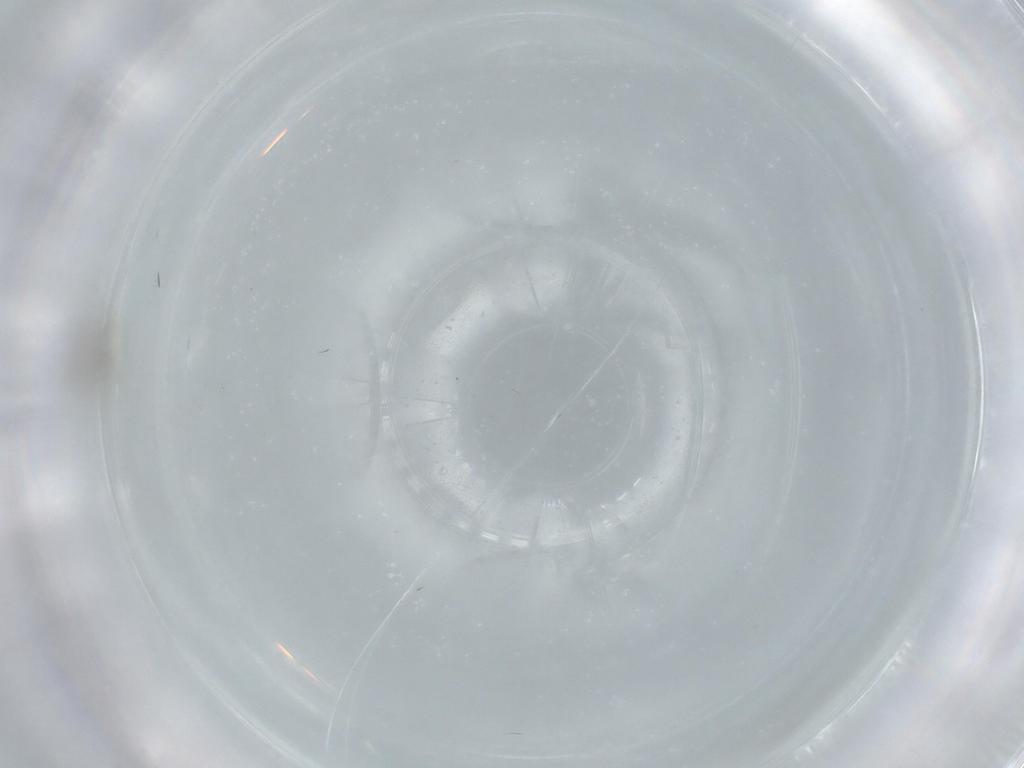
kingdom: Animalia
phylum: Arthropoda
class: Insecta
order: Diptera
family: Cecidomyiidae
